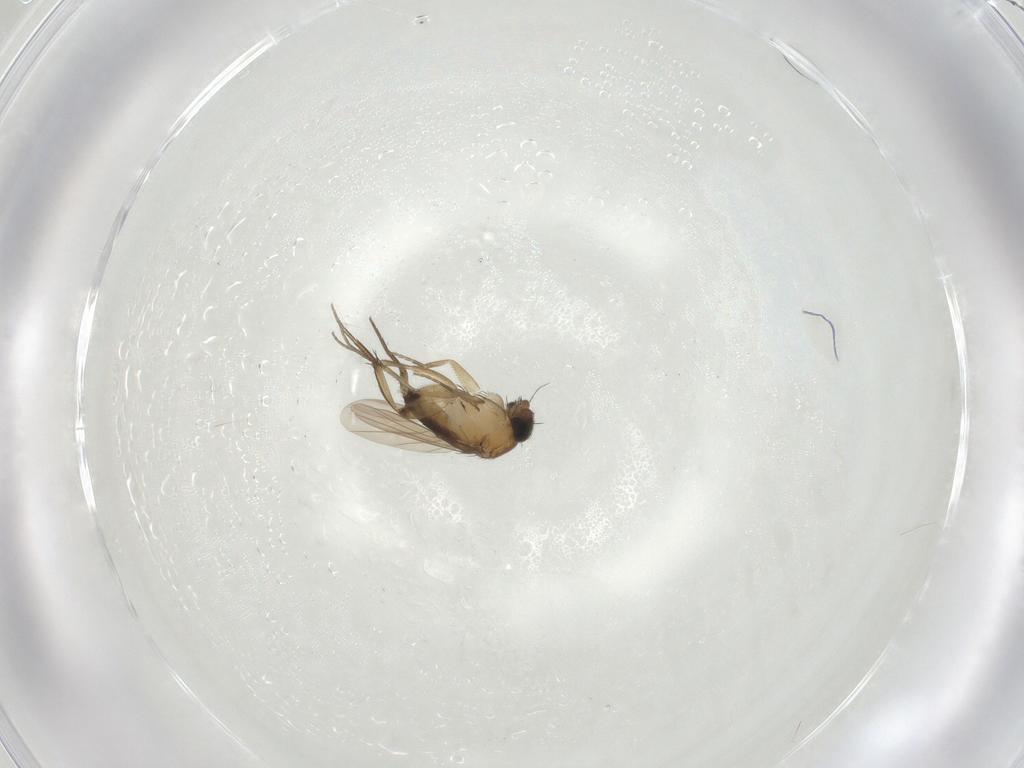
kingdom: Animalia
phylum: Arthropoda
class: Insecta
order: Diptera
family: Phoridae
